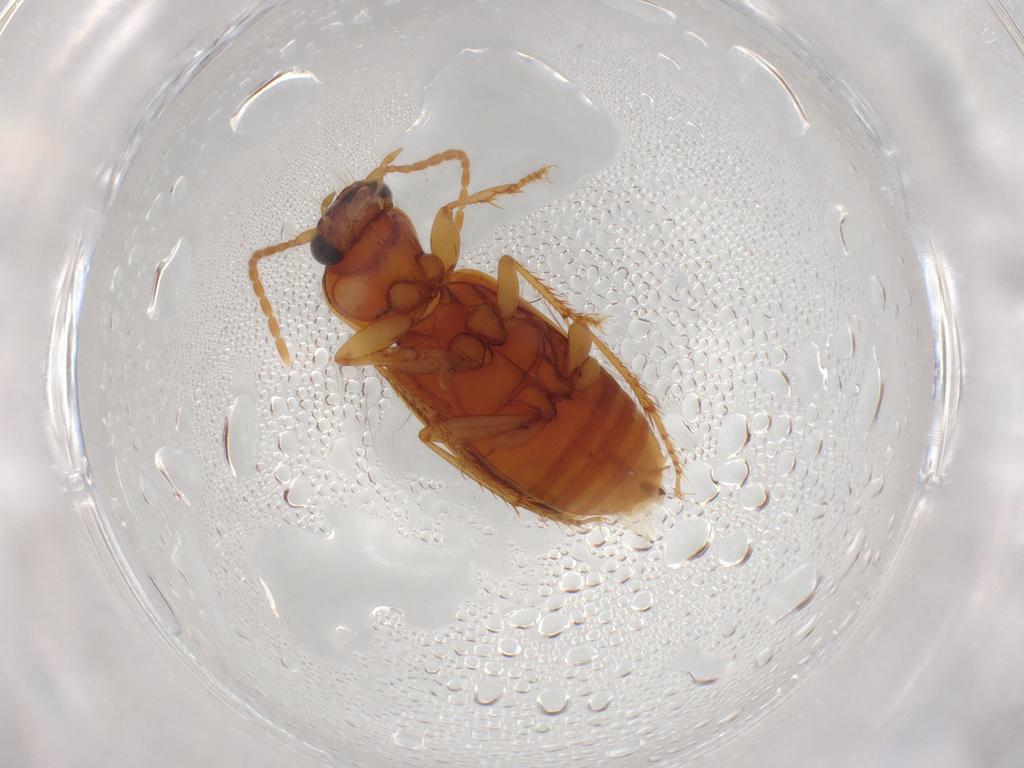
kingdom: Animalia
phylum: Arthropoda
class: Insecta
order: Coleoptera
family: Carabidae
